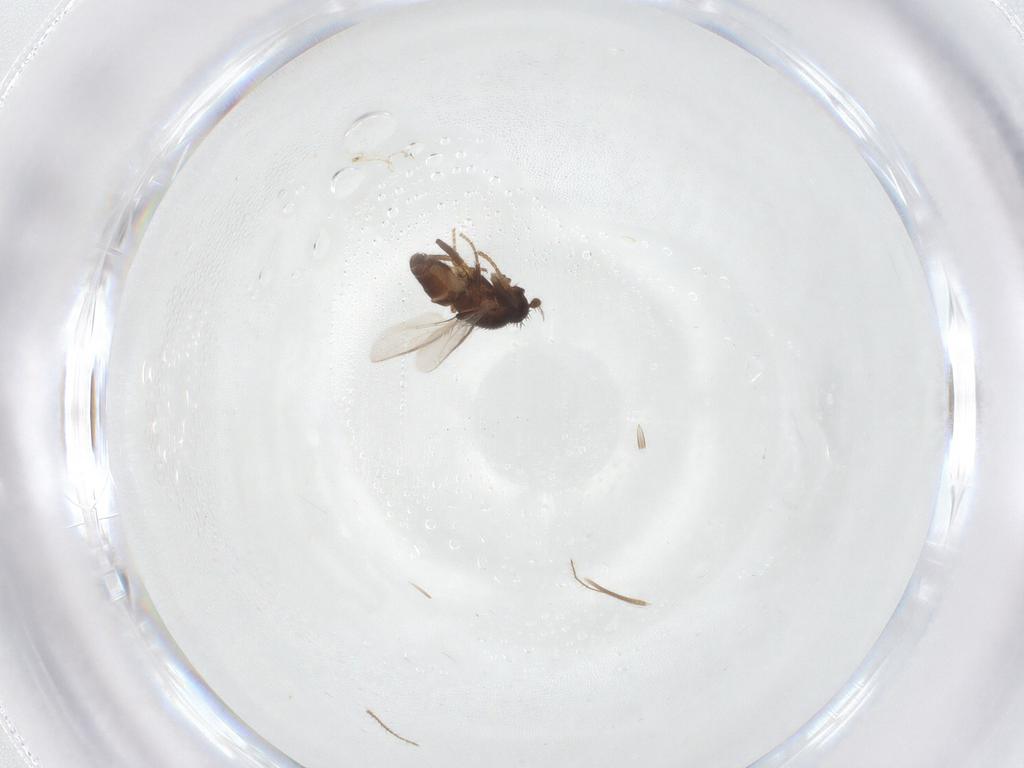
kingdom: Animalia
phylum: Arthropoda
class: Insecta
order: Diptera
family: Sphaeroceridae
